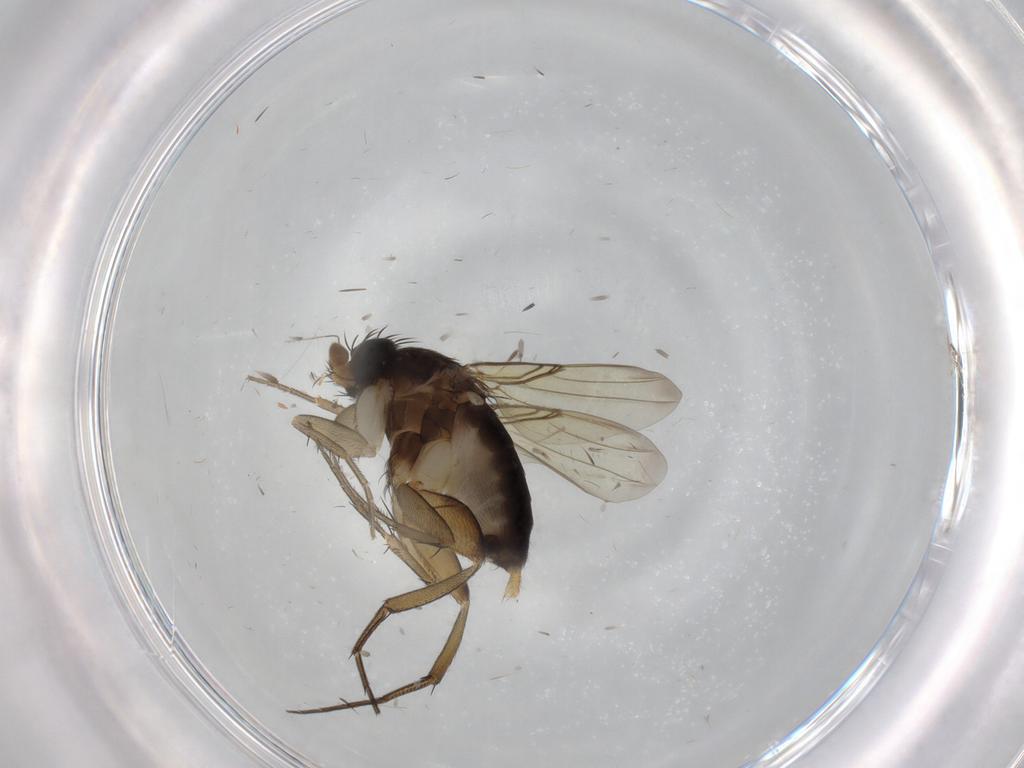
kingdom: Animalia
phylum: Arthropoda
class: Insecta
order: Diptera
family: Phoridae
